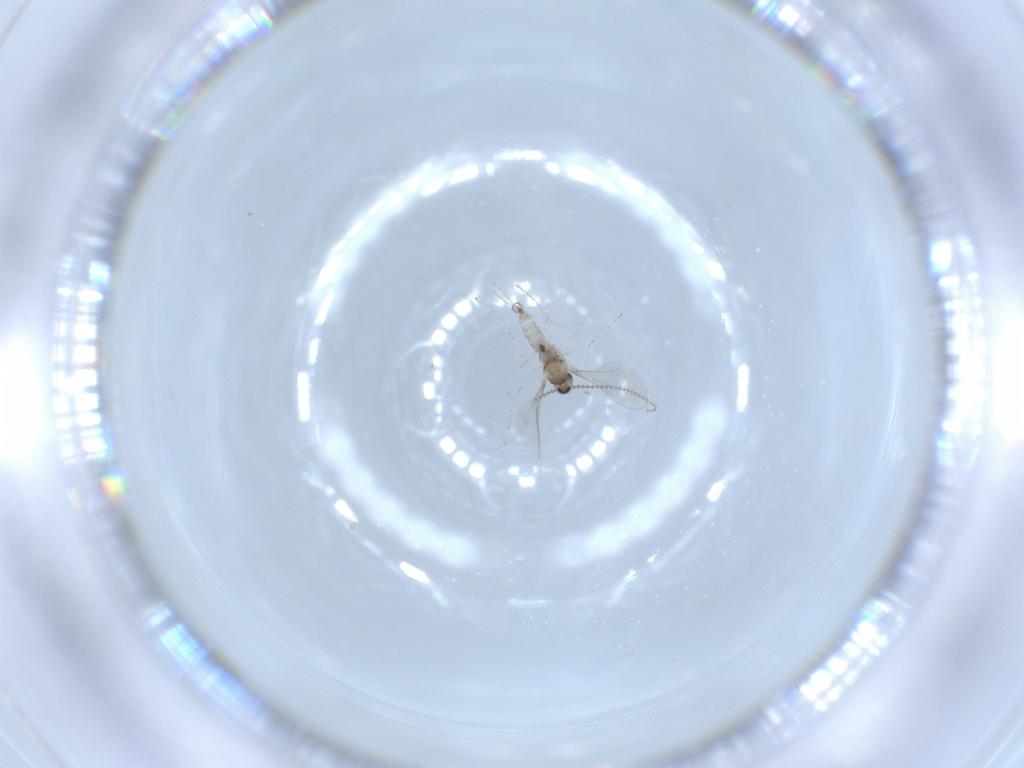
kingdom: Animalia
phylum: Arthropoda
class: Insecta
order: Diptera
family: Cecidomyiidae
